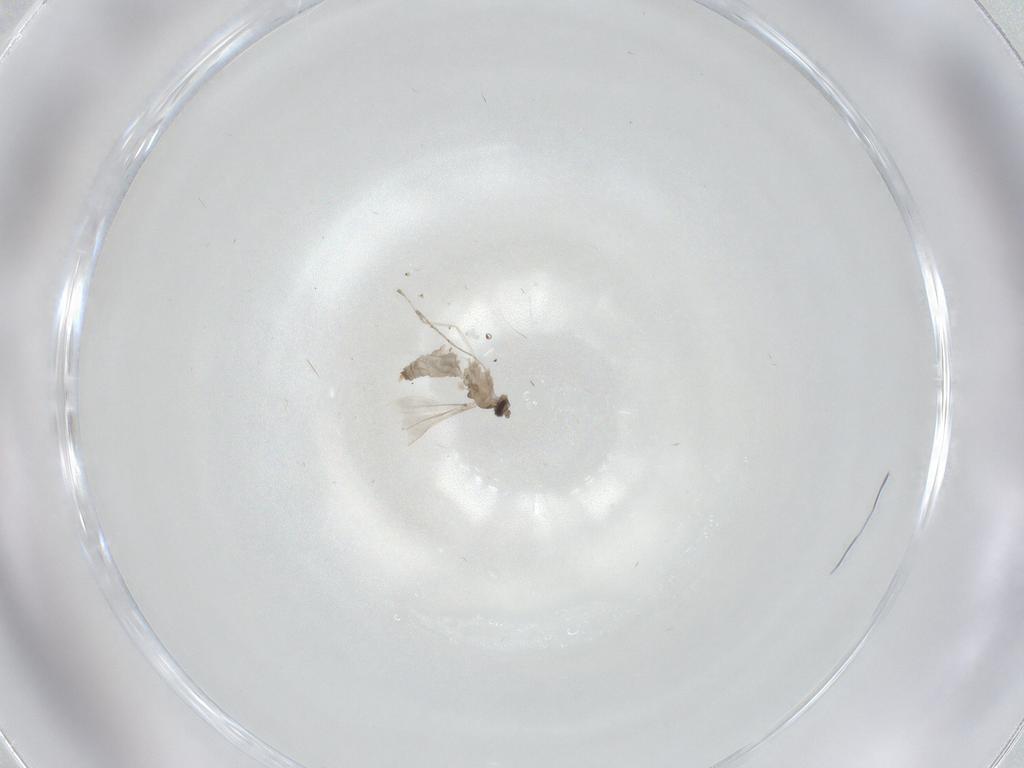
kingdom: Animalia
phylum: Arthropoda
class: Insecta
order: Diptera
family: Cecidomyiidae
